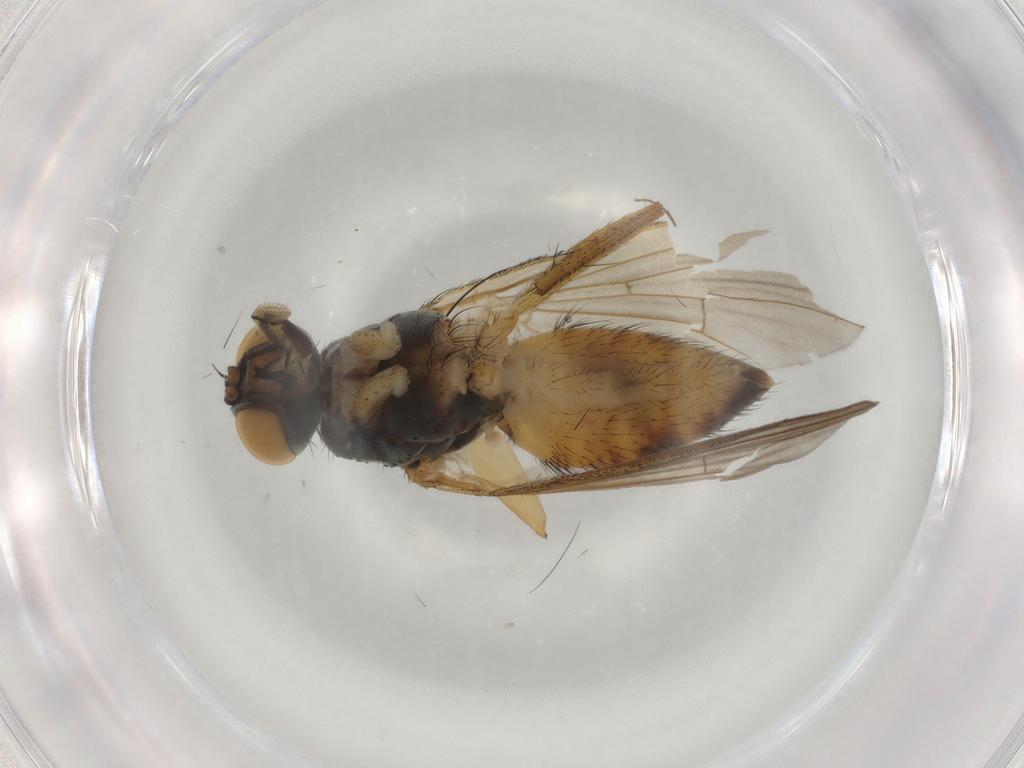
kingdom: Animalia
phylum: Arthropoda
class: Insecta
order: Diptera
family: Muscidae
